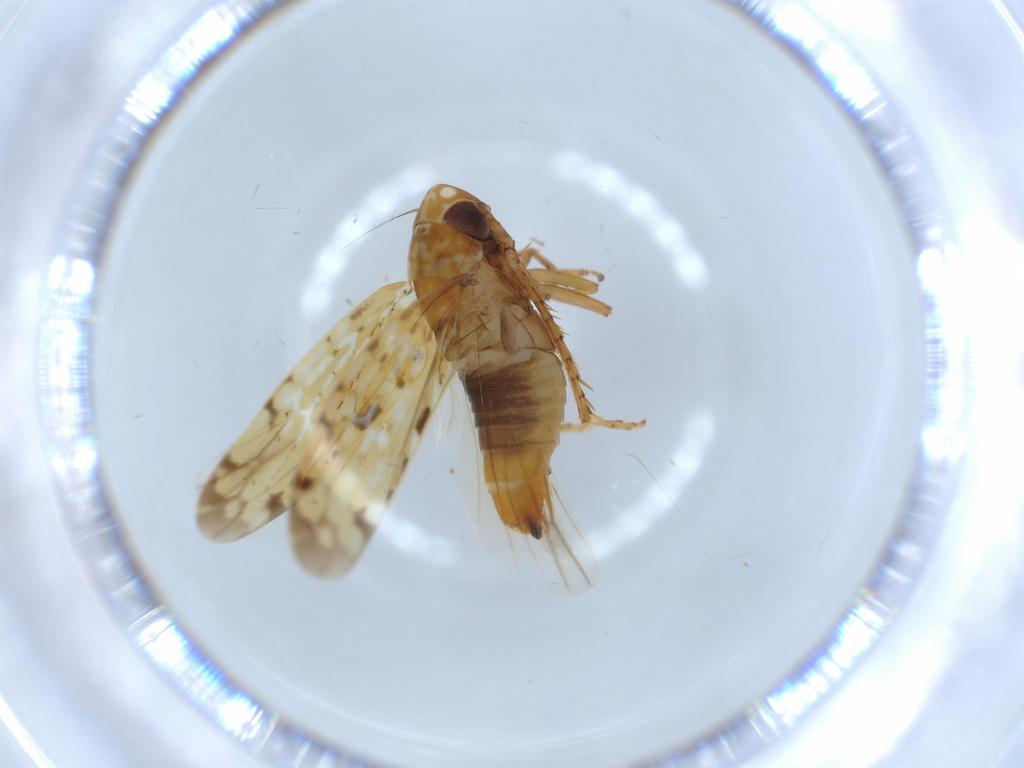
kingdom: Animalia
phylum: Arthropoda
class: Insecta
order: Hemiptera
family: Cicadellidae
